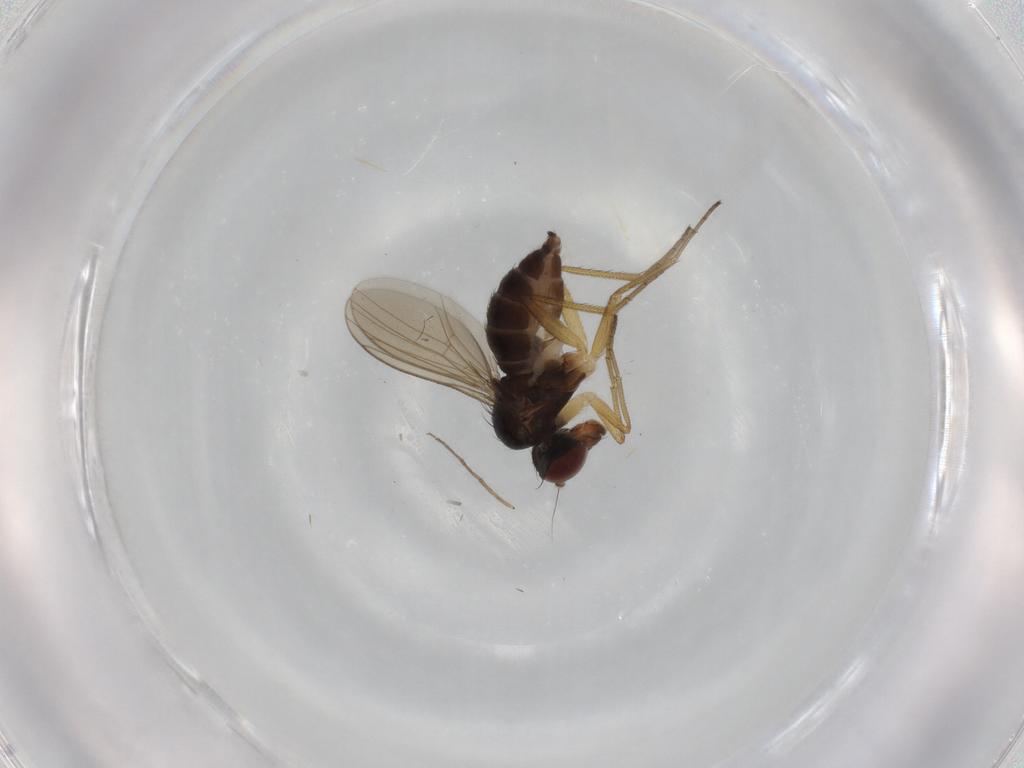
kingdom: Animalia
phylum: Arthropoda
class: Insecta
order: Diptera
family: Dolichopodidae
